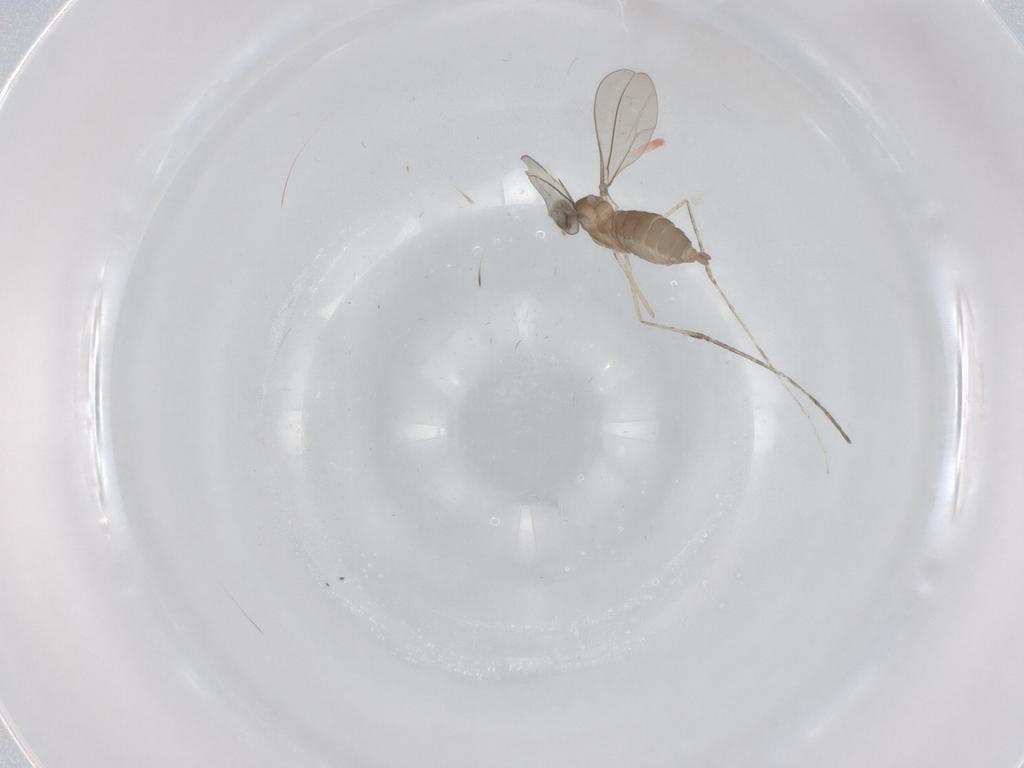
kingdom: Animalia
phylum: Arthropoda
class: Insecta
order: Diptera
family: Cecidomyiidae
